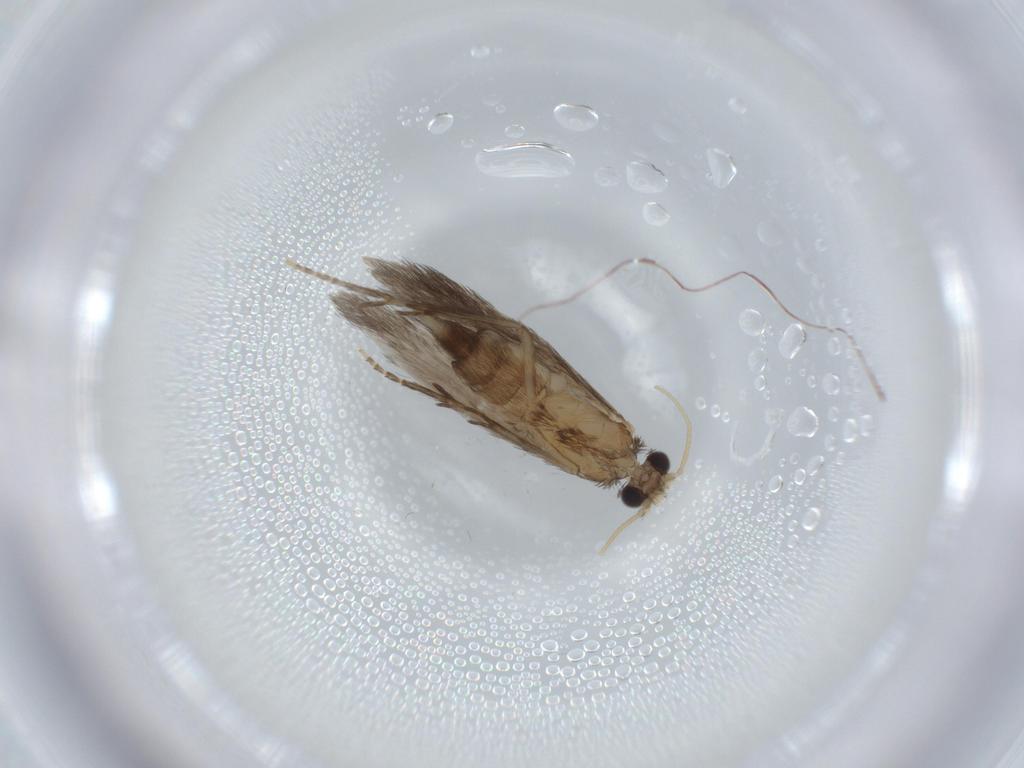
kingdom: Animalia
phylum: Arthropoda
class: Insecta
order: Trichoptera
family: Hydroptilidae
